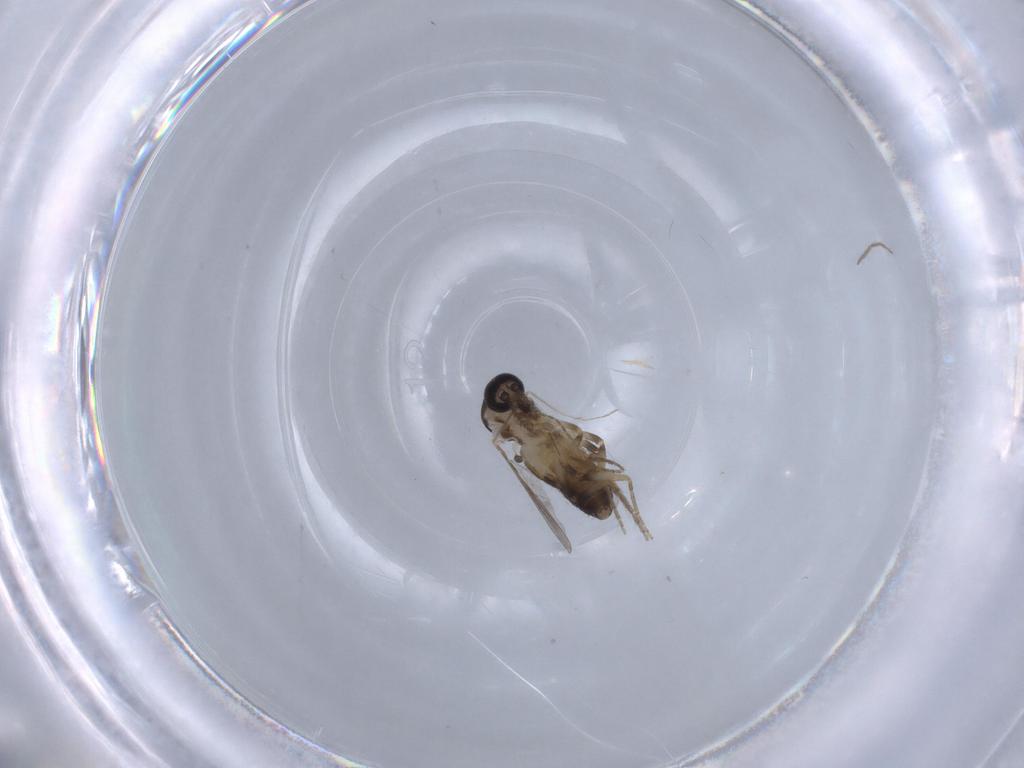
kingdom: Animalia
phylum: Arthropoda
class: Insecta
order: Diptera
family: Ceratopogonidae
